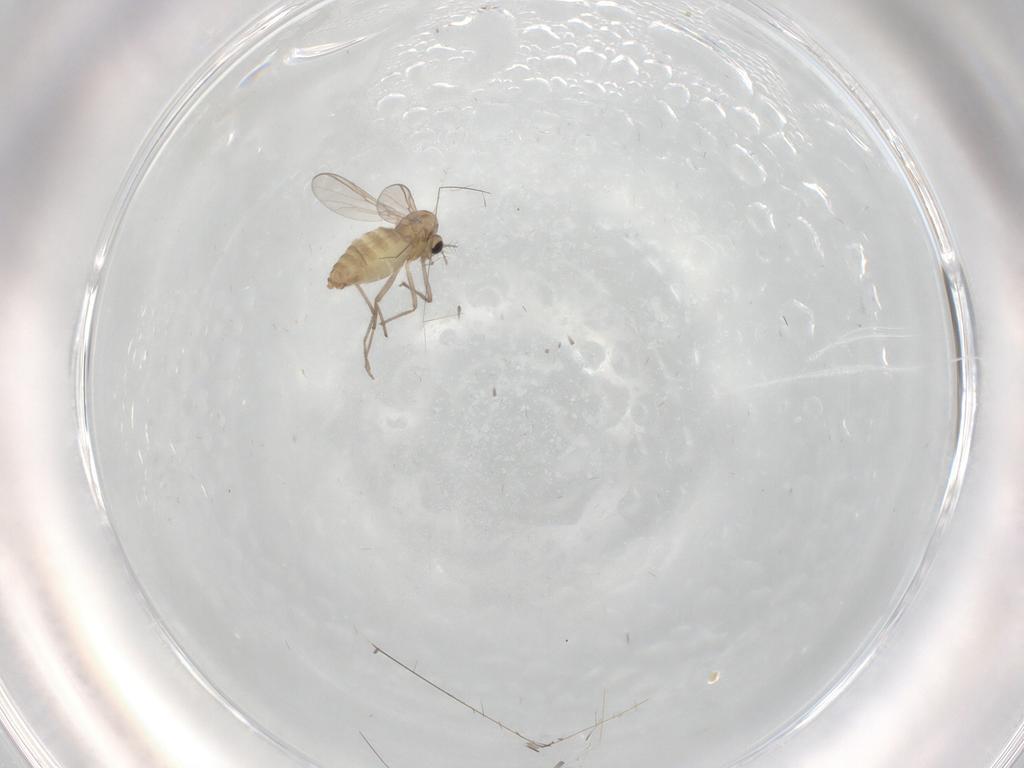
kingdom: Animalia
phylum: Arthropoda
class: Insecta
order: Diptera
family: Chironomidae
